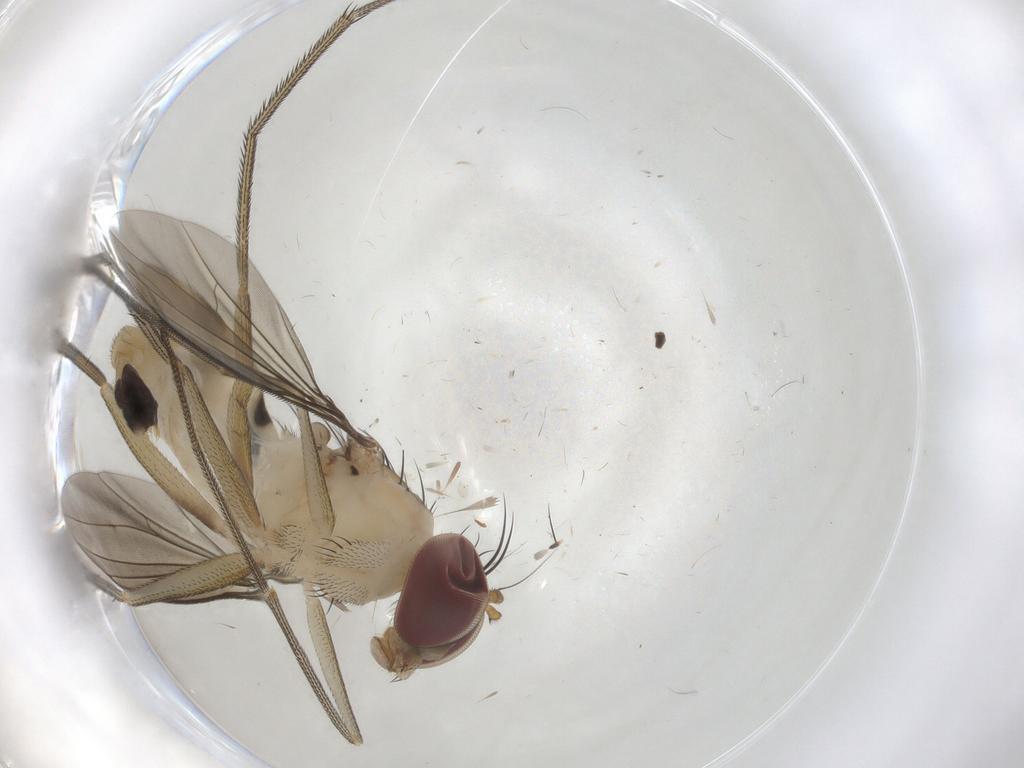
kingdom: Animalia
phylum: Arthropoda
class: Insecta
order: Diptera
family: Dolichopodidae
